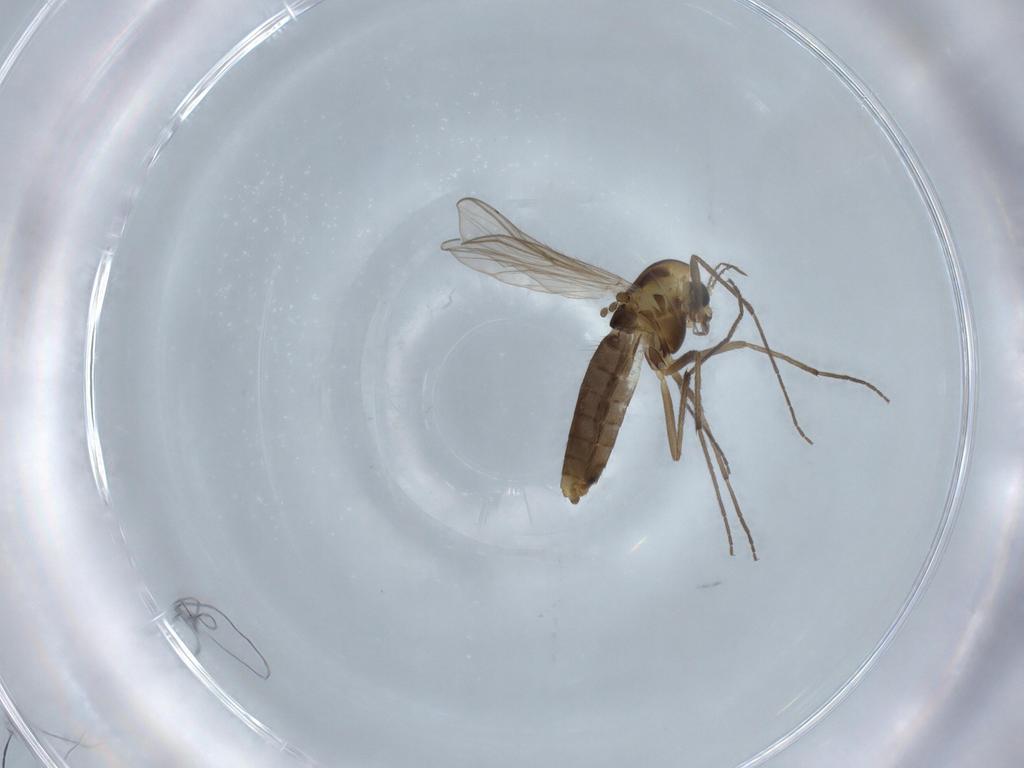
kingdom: Animalia
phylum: Arthropoda
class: Insecta
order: Diptera
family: Chironomidae
